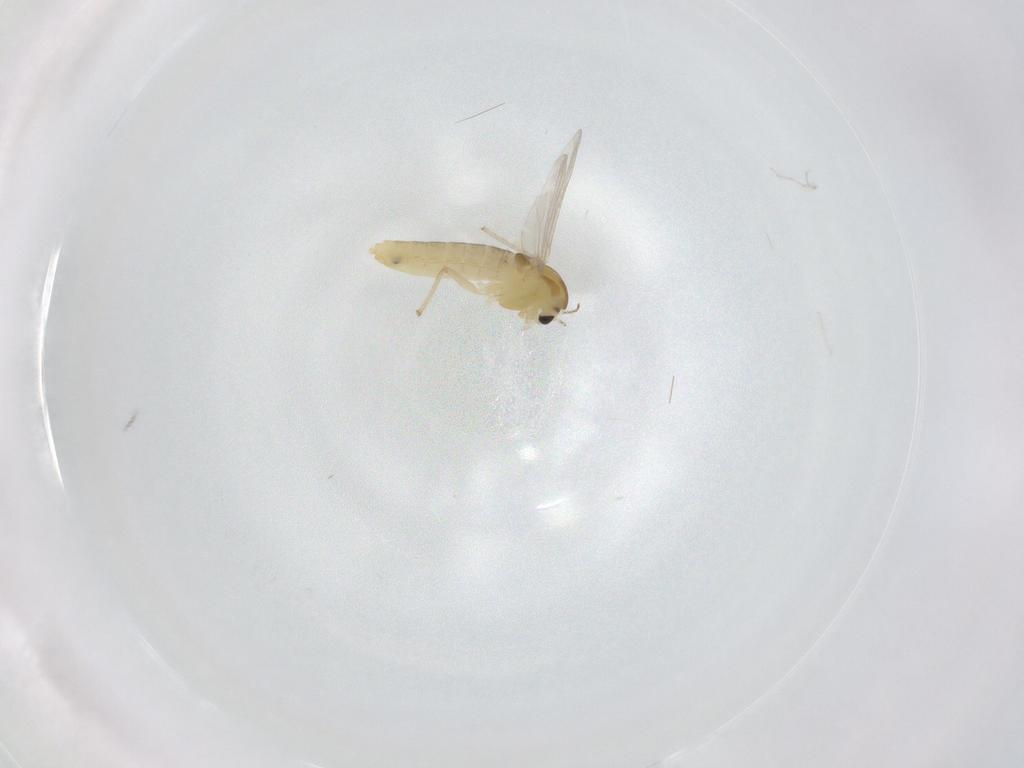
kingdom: Animalia
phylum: Arthropoda
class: Insecta
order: Diptera
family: Chironomidae
